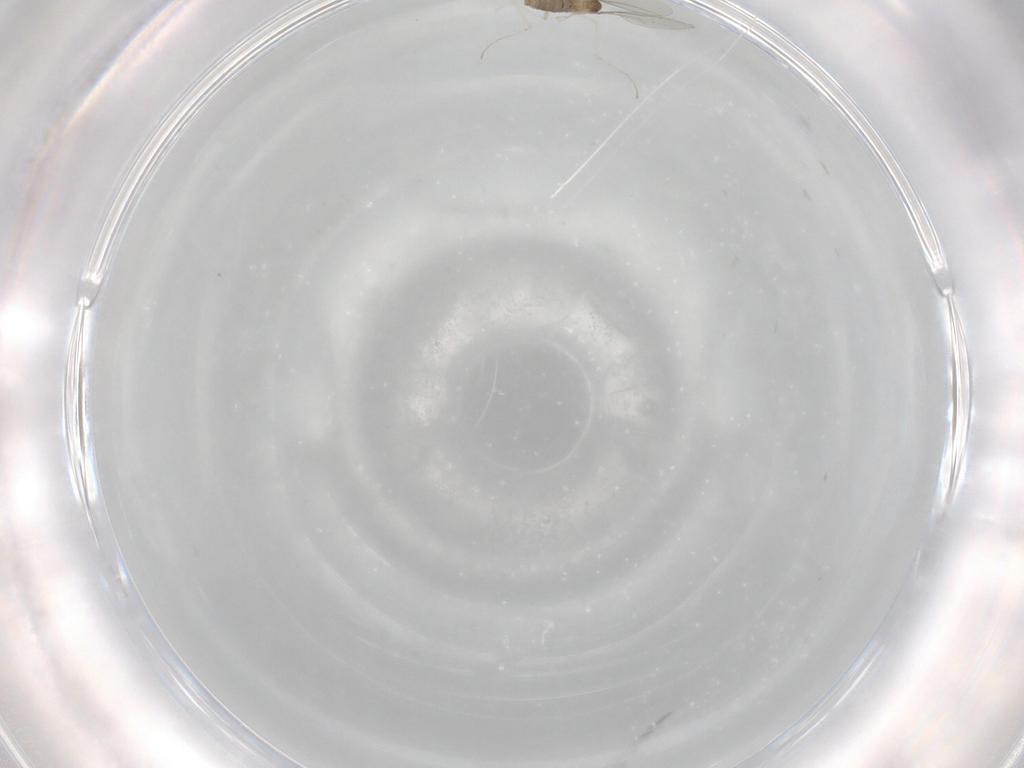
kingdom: Animalia
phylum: Arthropoda
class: Insecta
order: Diptera
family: Cecidomyiidae
